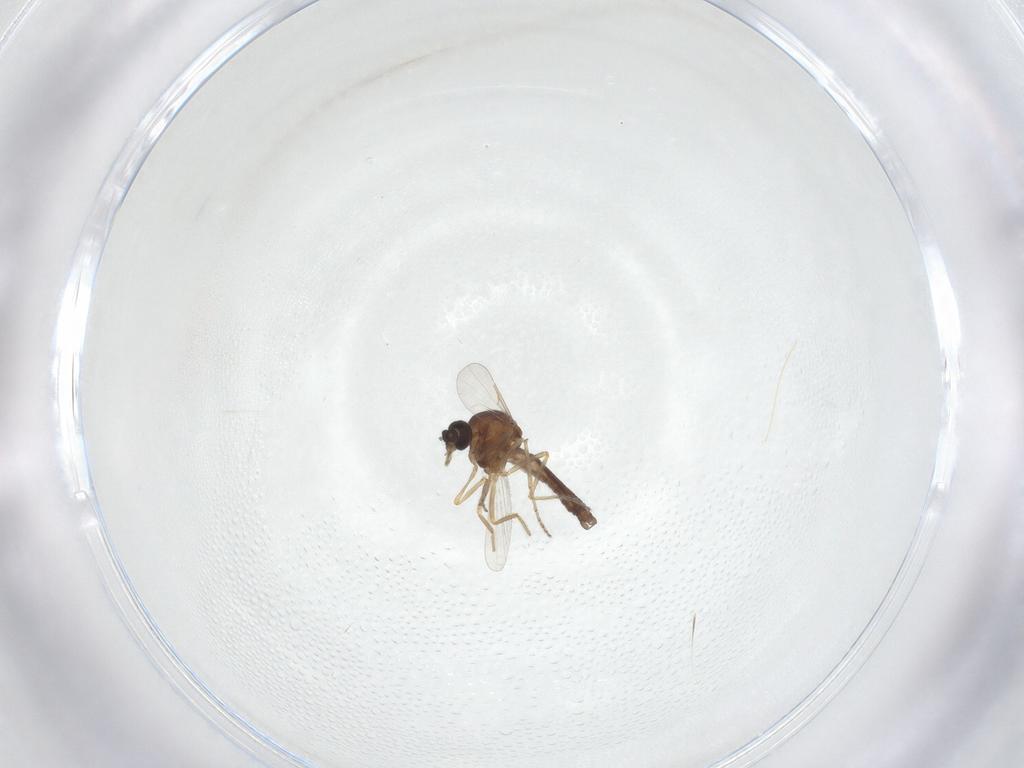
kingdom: Animalia
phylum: Arthropoda
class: Insecta
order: Diptera
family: Ceratopogonidae
